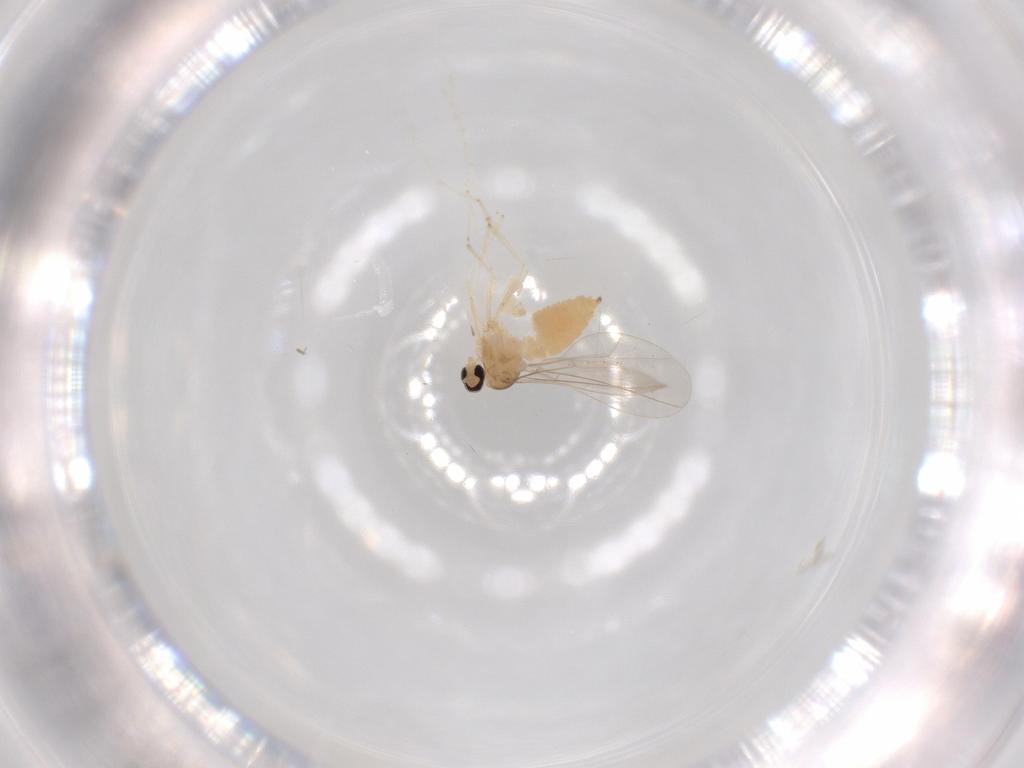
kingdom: Animalia
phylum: Arthropoda
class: Insecta
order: Diptera
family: Cecidomyiidae
